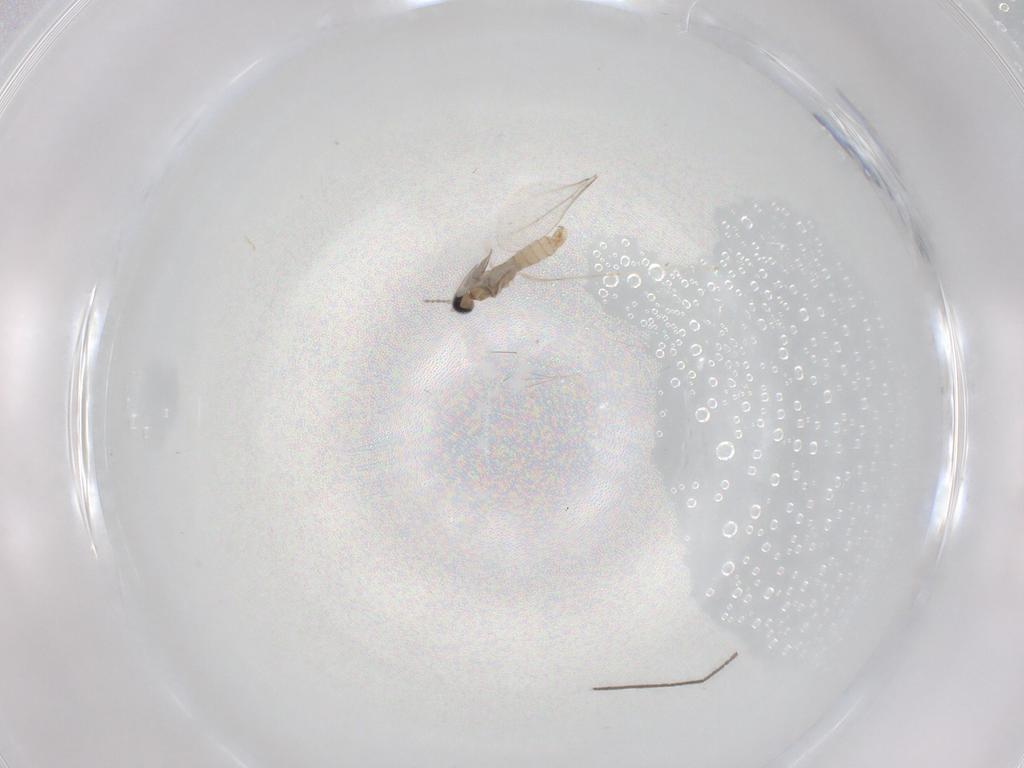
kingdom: Animalia
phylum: Arthropoda
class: Insecta
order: Diptera
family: Chironomidae
